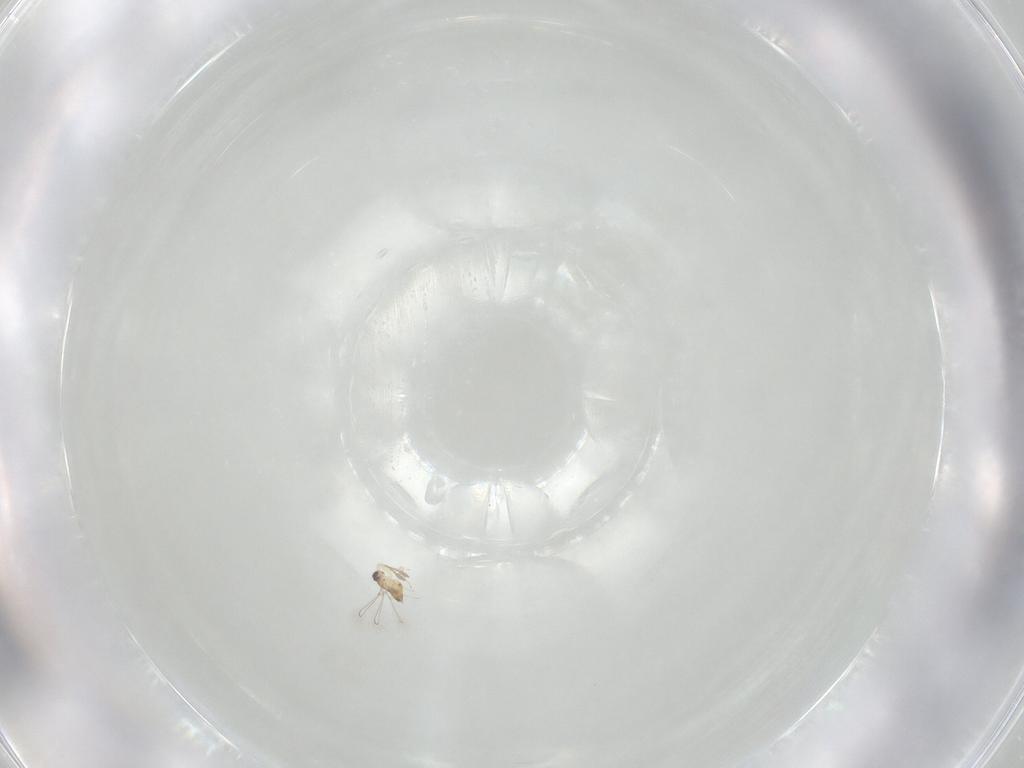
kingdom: Animalia
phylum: Arthropoda
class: Insecta
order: Hymenoptera
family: Mymaridae
